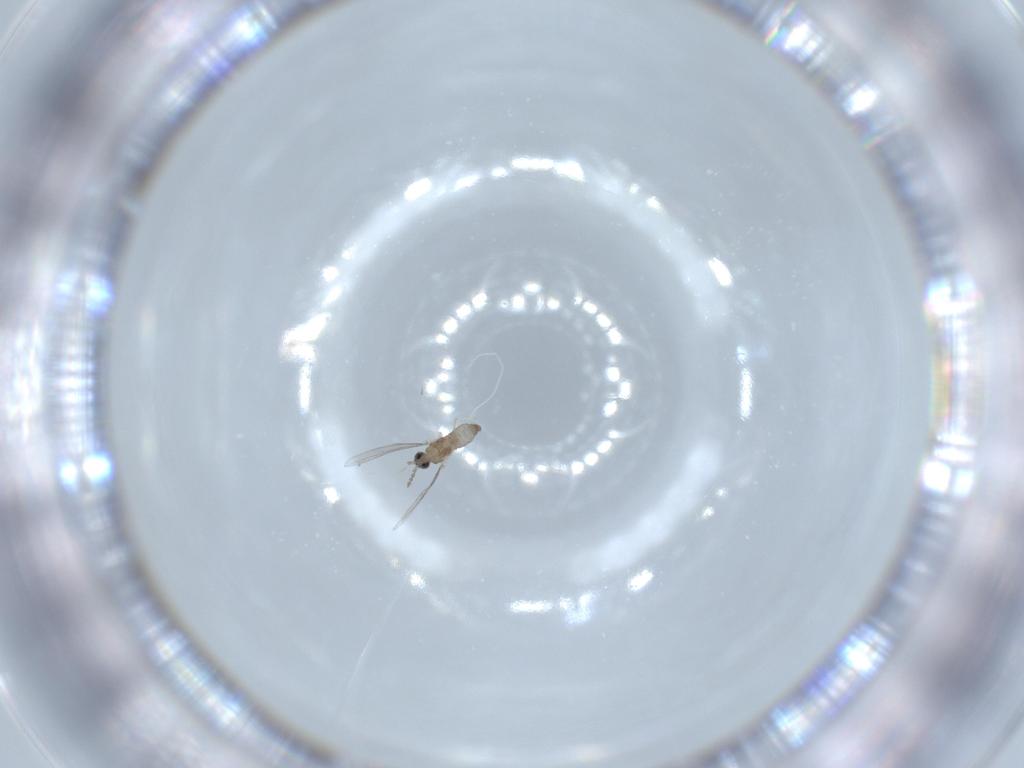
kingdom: Animalia
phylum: Arthropoda
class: Insecta
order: Diptera
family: Cecidomyiidae
